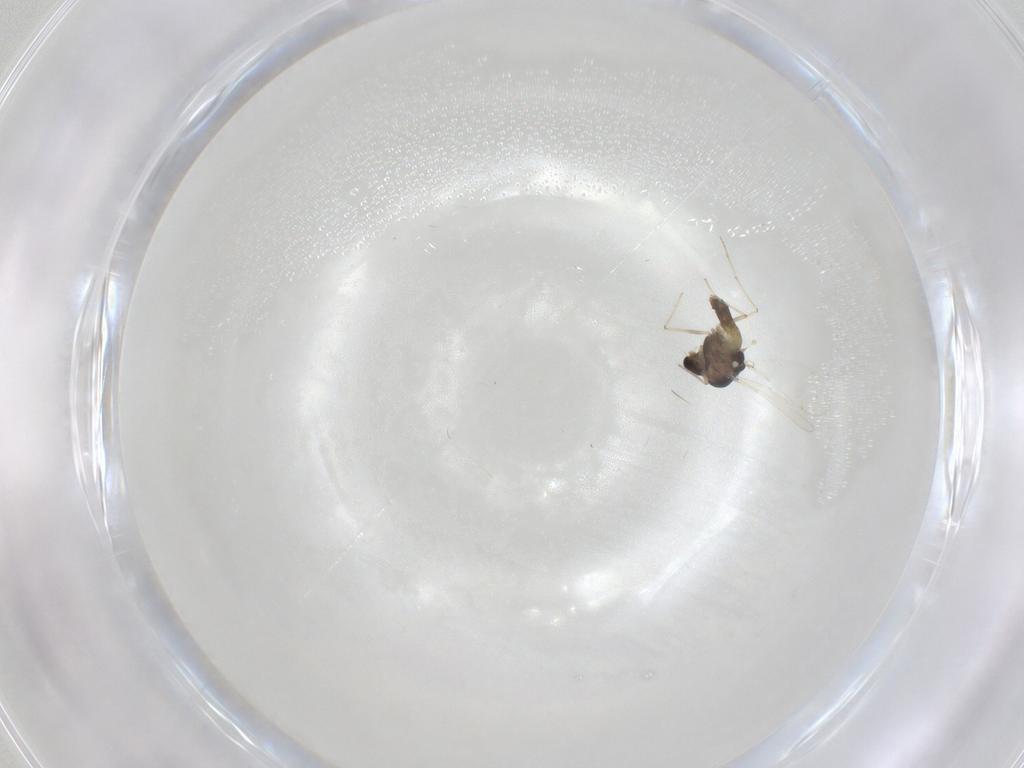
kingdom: Animalia
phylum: Arthropoda
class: Insecta
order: Diptera
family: Chironomidae
